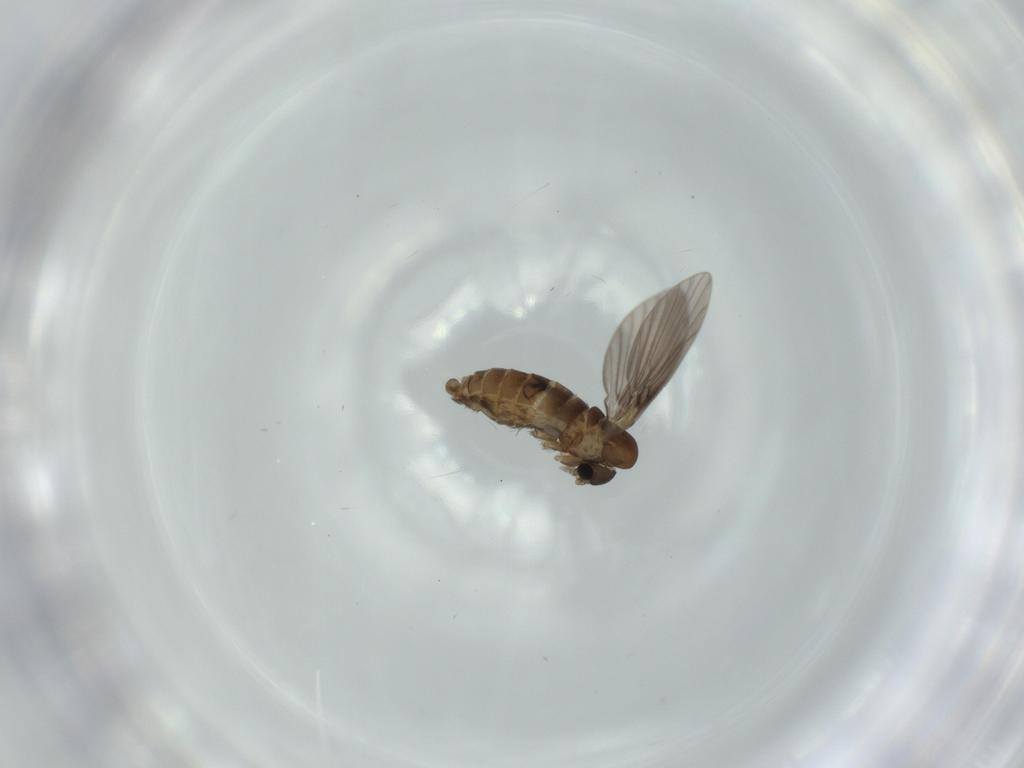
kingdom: Animalia
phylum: Arthropoda
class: Insecta
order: Diptera
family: Psychodidae
